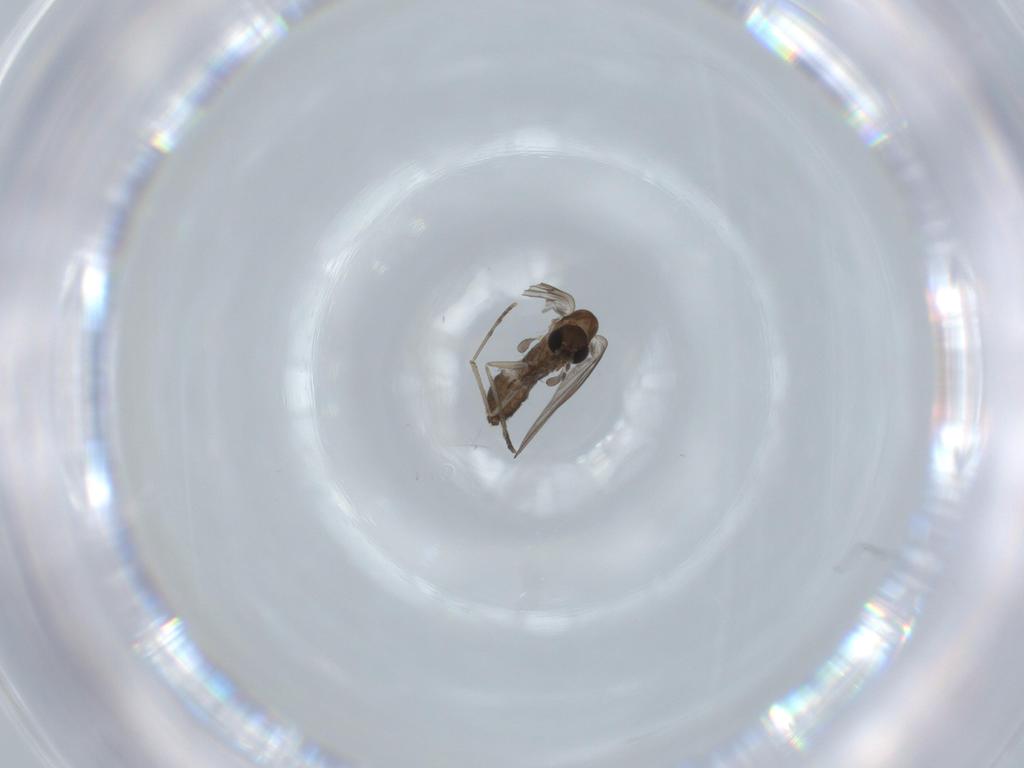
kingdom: Animalia
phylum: Arthropoda
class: Insecta
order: Diptera
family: Psychodidae
